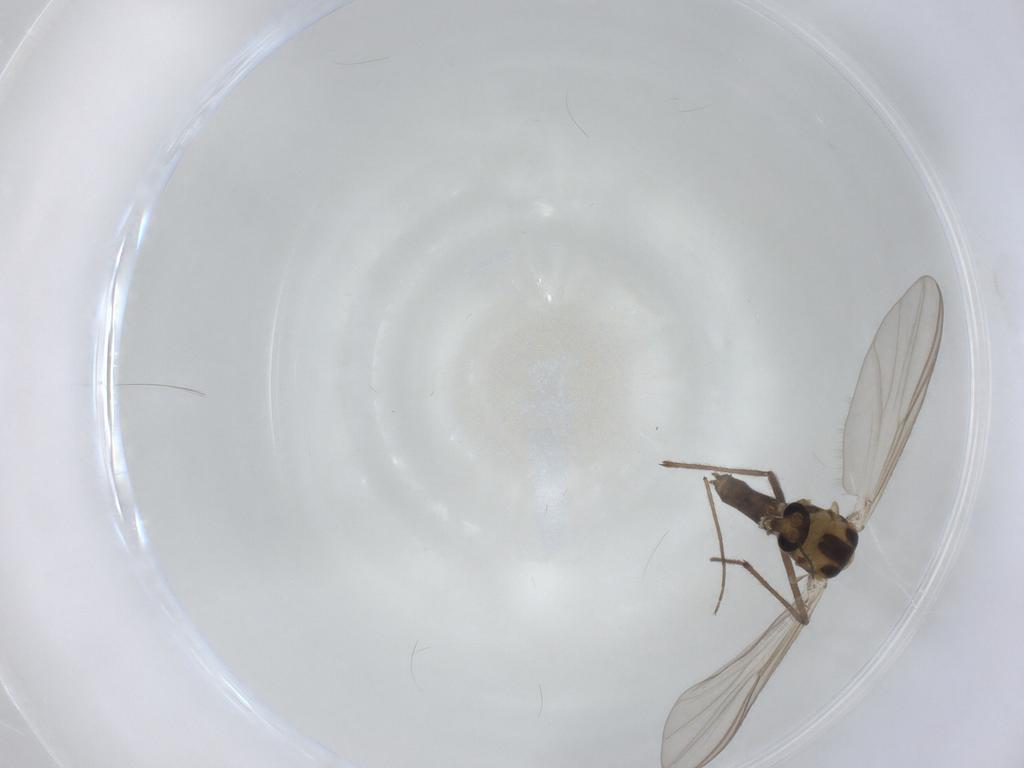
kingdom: Animalia
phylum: Arthropoda
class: Insecta
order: Diptera
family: Chironomidae
